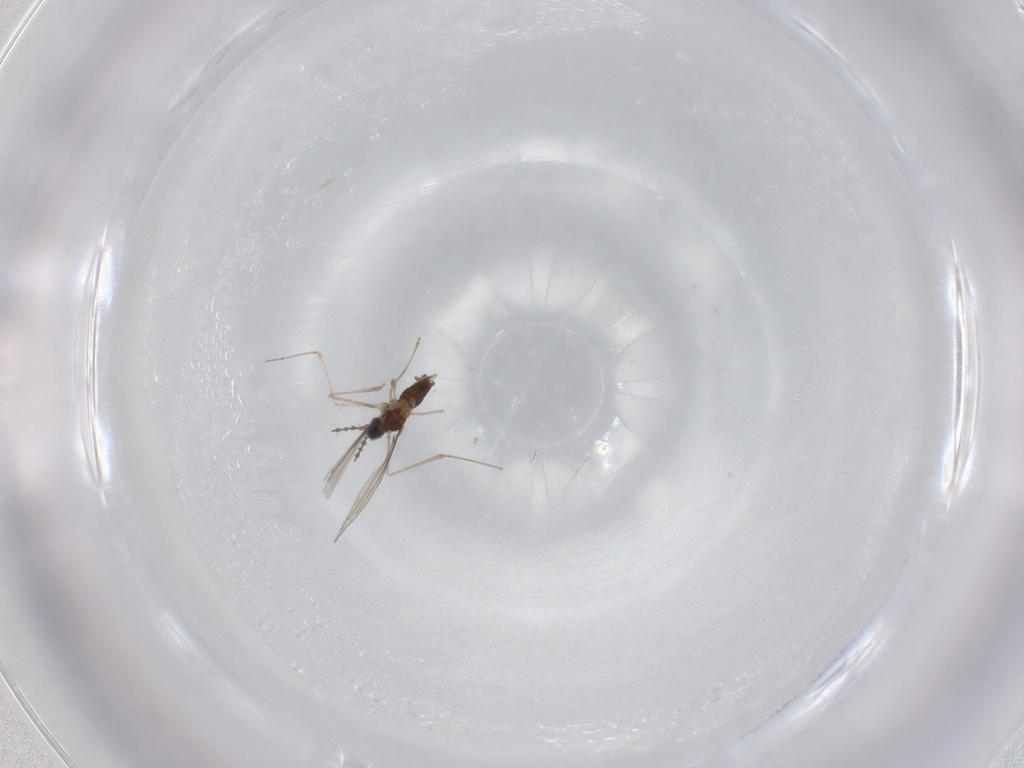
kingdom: Animalia
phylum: Arthropoda
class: Insecta
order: Diptera
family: Cecidomyiidae
